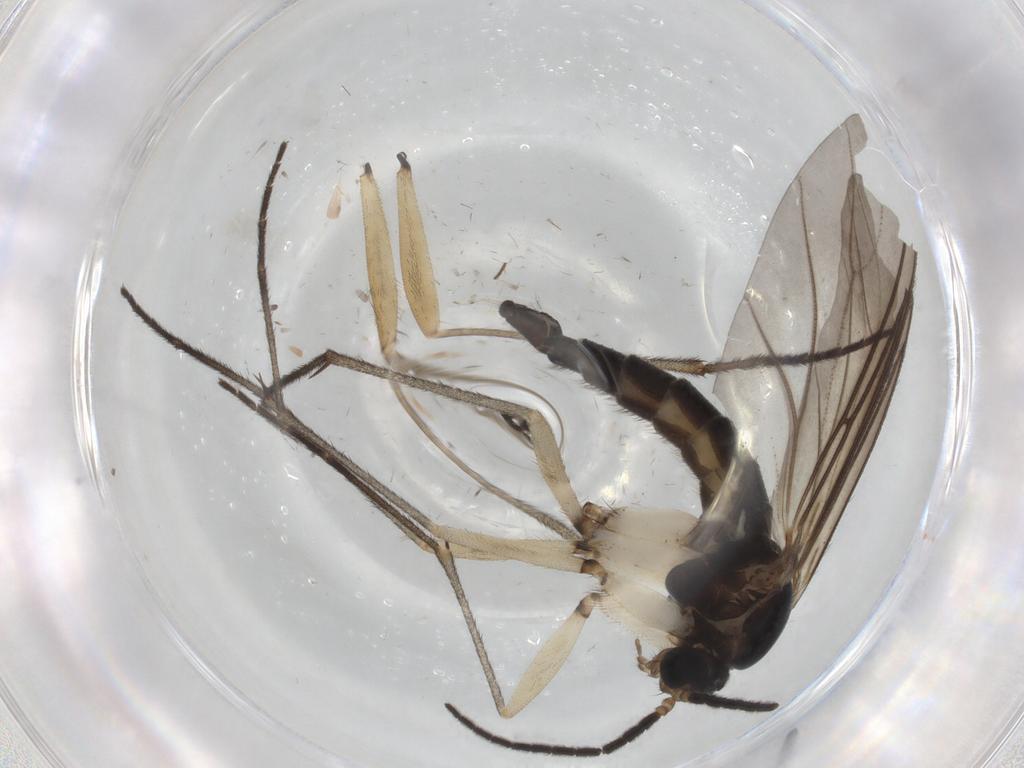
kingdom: Animalia
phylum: Arthropoda
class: Insecta
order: Diptera
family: Sciaridae
